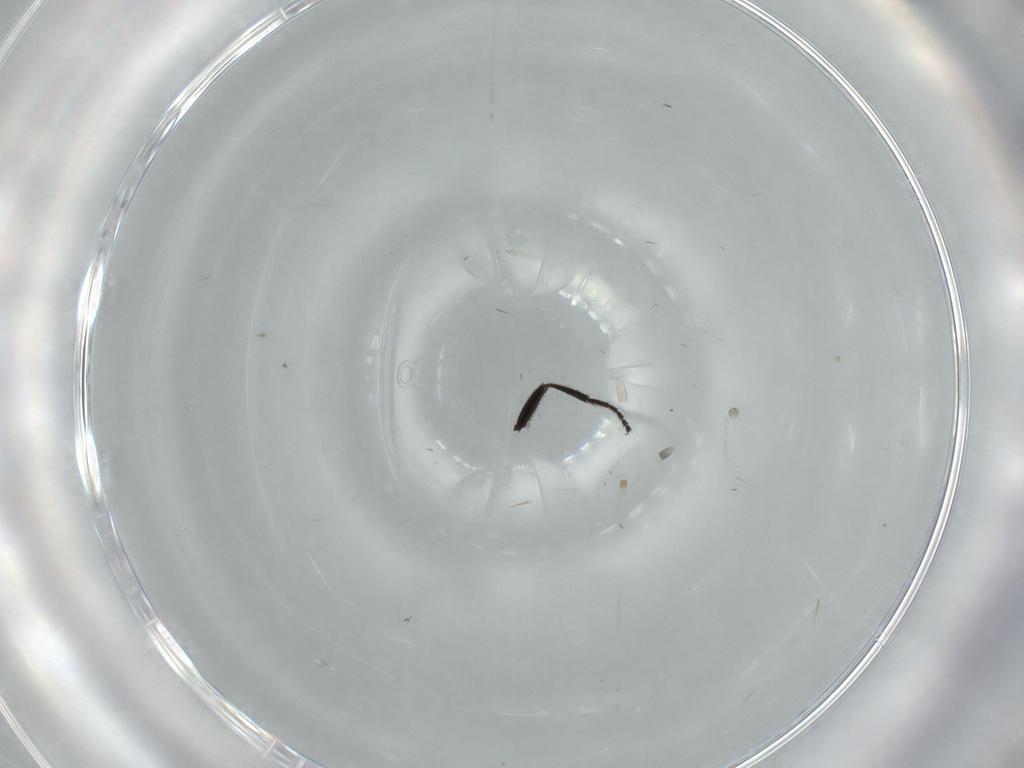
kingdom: Animalia
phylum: Arthropoda
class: Insecta
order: Diptera
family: Milichiidae
